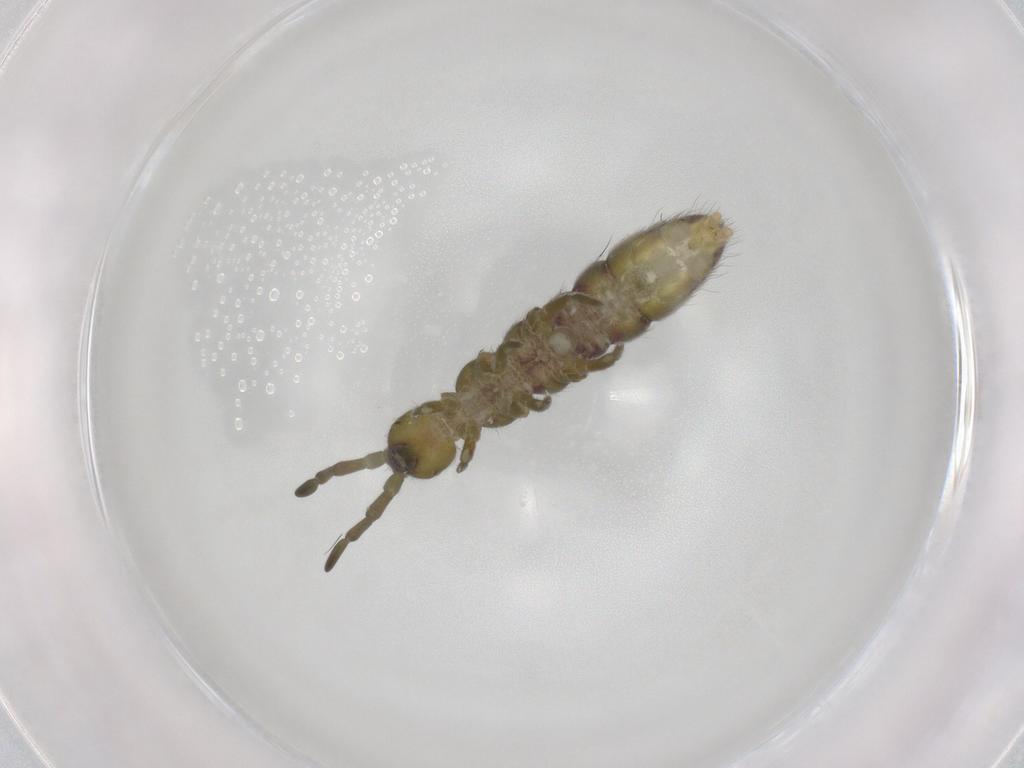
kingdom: Animalia
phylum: Arthropoda
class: Collembola
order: Entomobryomorpha
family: Isotomidae
